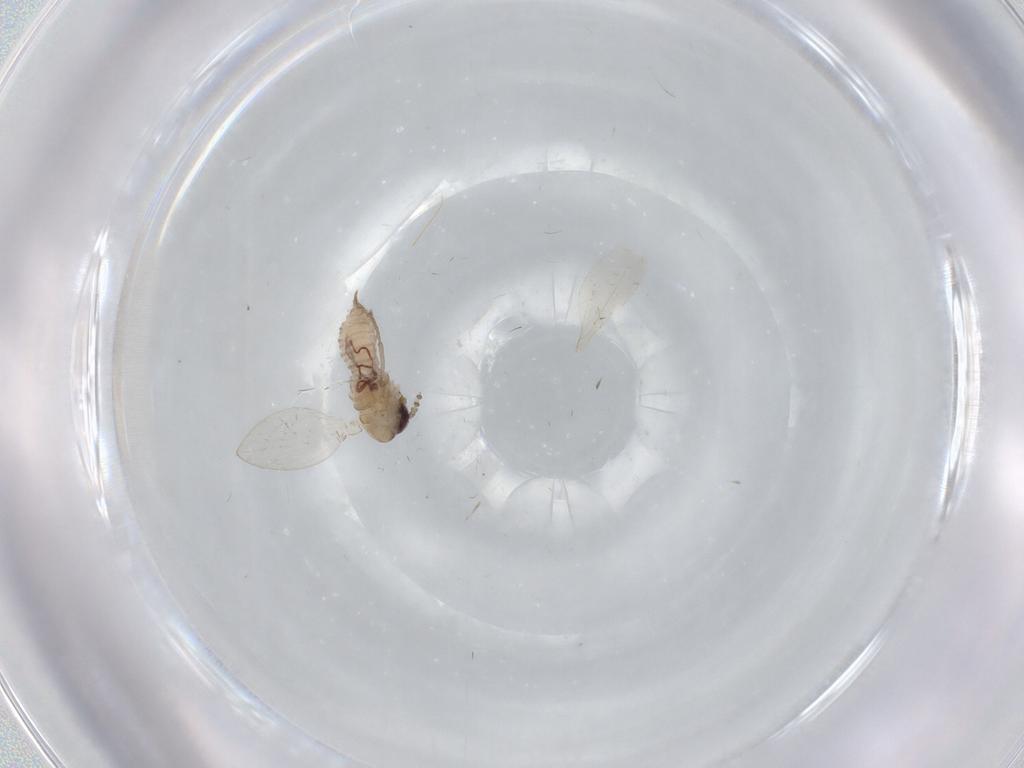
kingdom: Animalia
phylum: Arthropoda
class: Insecta
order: Diptera
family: Psychodidae
